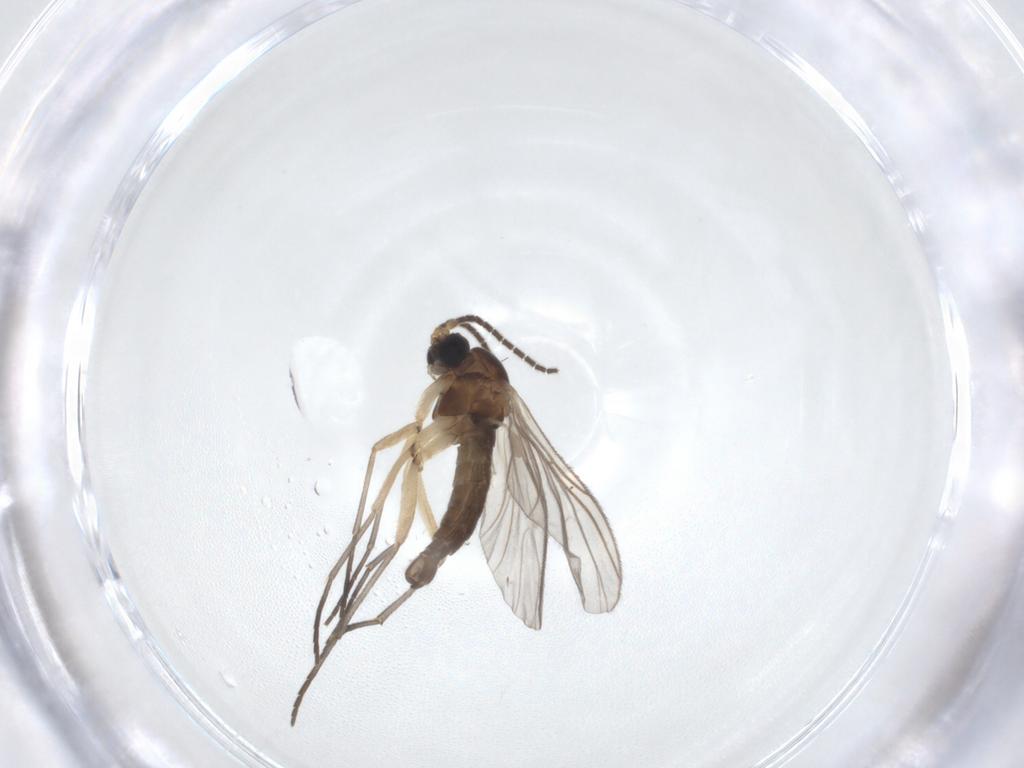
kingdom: Animalia
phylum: Arthropoda
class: Insecta
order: Diptera
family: Sciaridae
